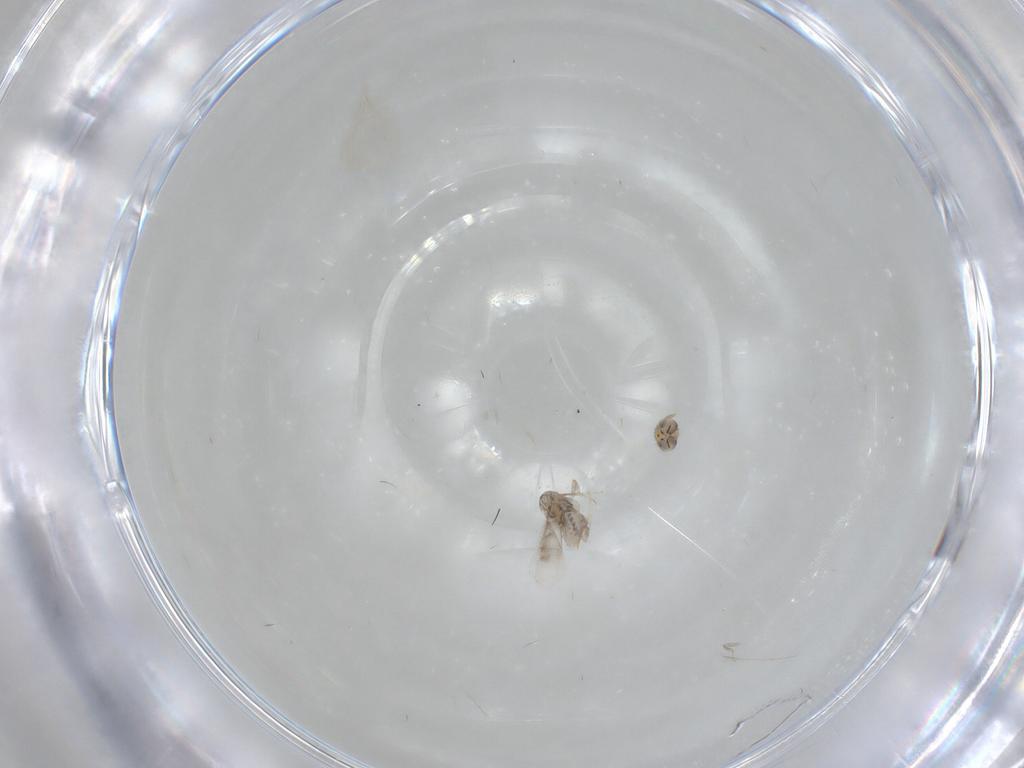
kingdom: Animalia
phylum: Arthropoda
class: Insecta
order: Hymenoptera
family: Aphelinidae
